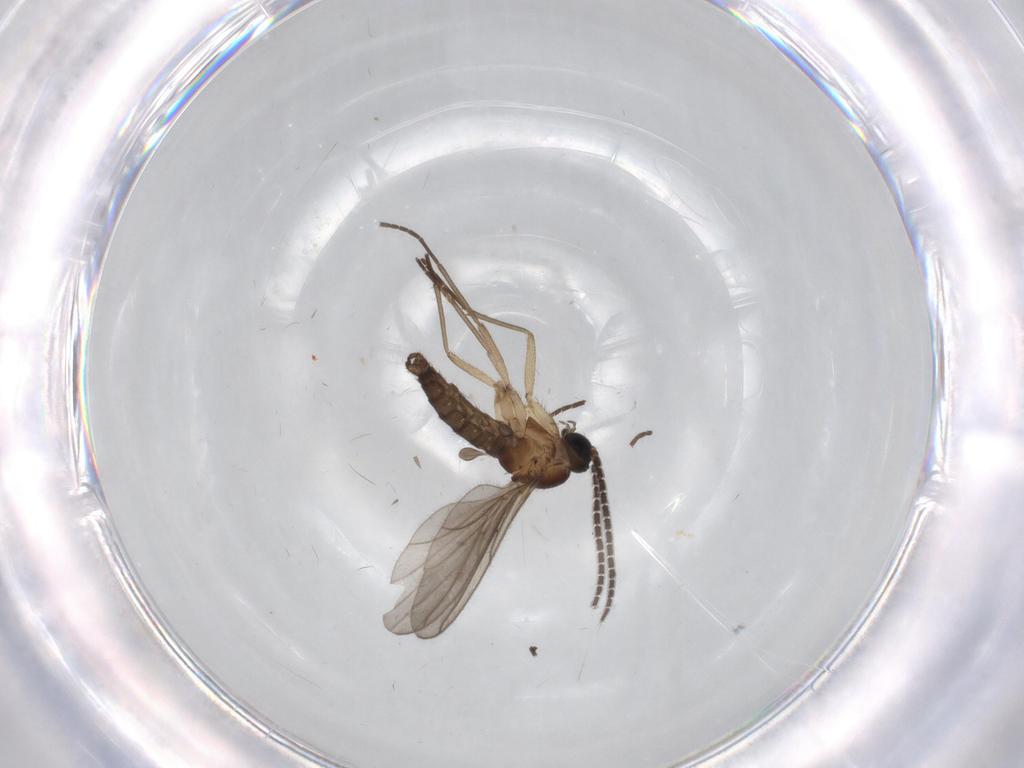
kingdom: Animalia
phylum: Arthropoda
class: Insecta
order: Diptera
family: Sciaridae
